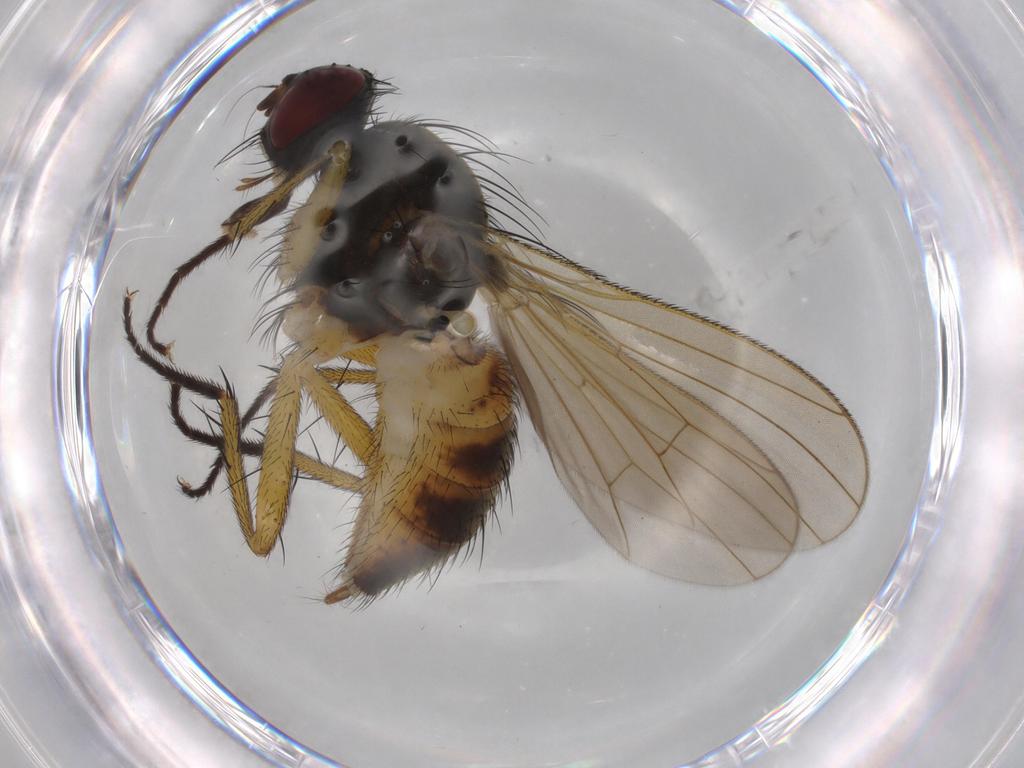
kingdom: Animalia
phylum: Arthropoda
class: Insecta
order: Diptera
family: Muscidae
